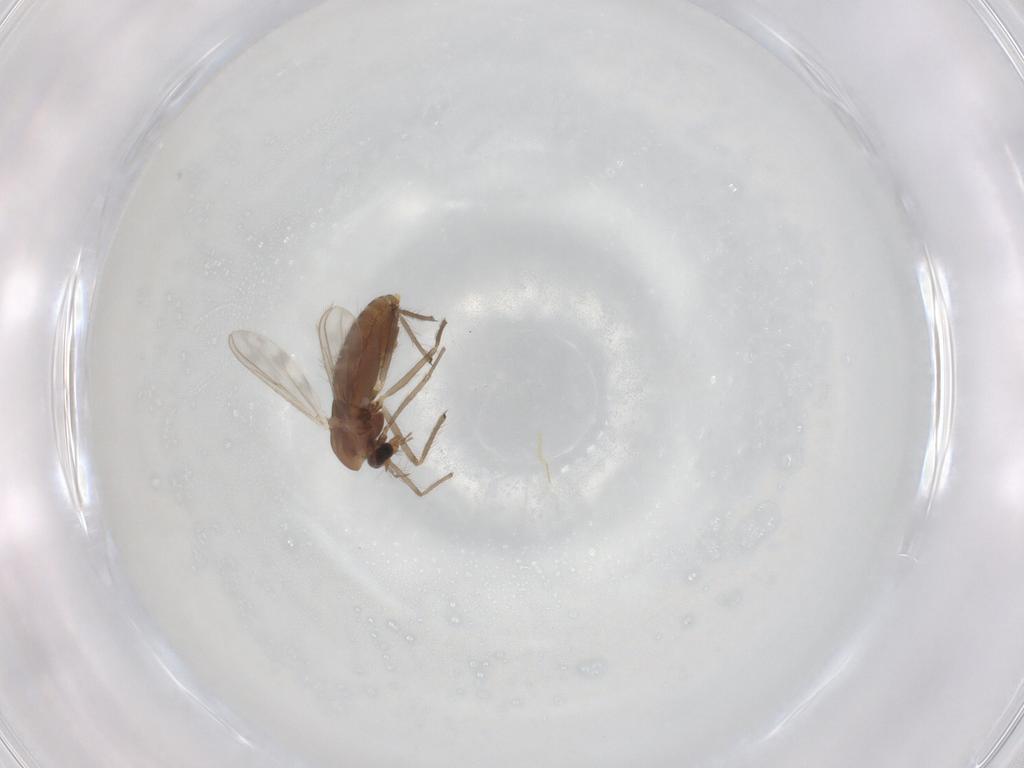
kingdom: Animalia
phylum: Arthropoda
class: Insecta
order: Diptera
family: Chironomidae
